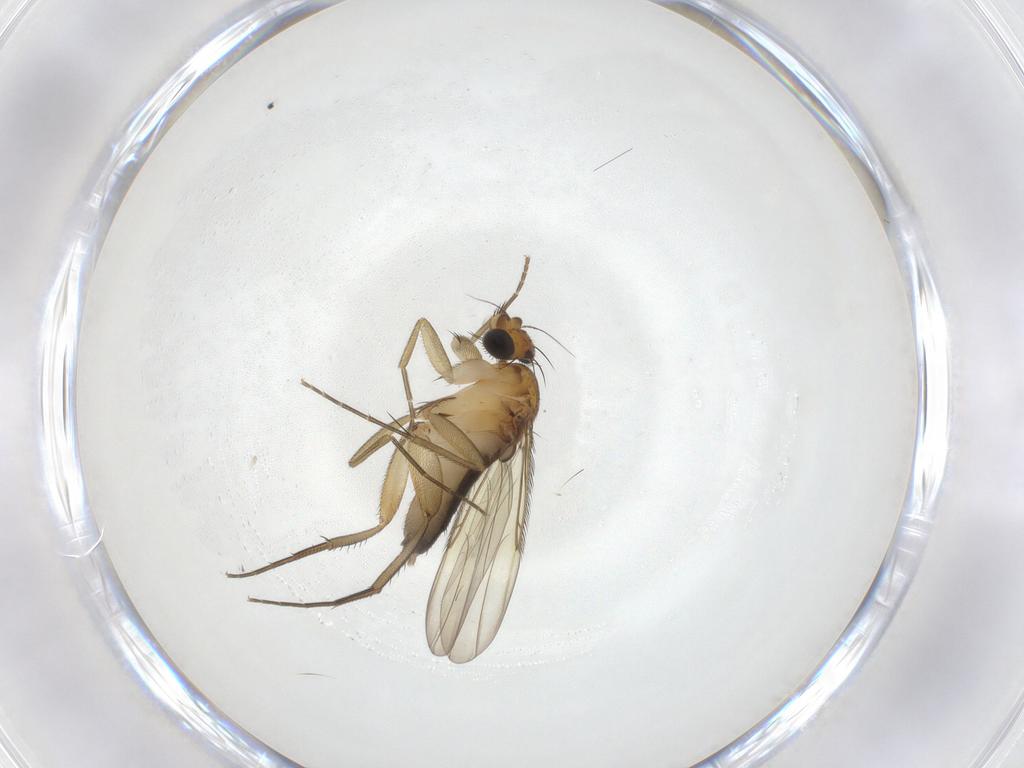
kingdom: Animalia
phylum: Arthropoda
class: Insecta
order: Diptera
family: Phoridae
